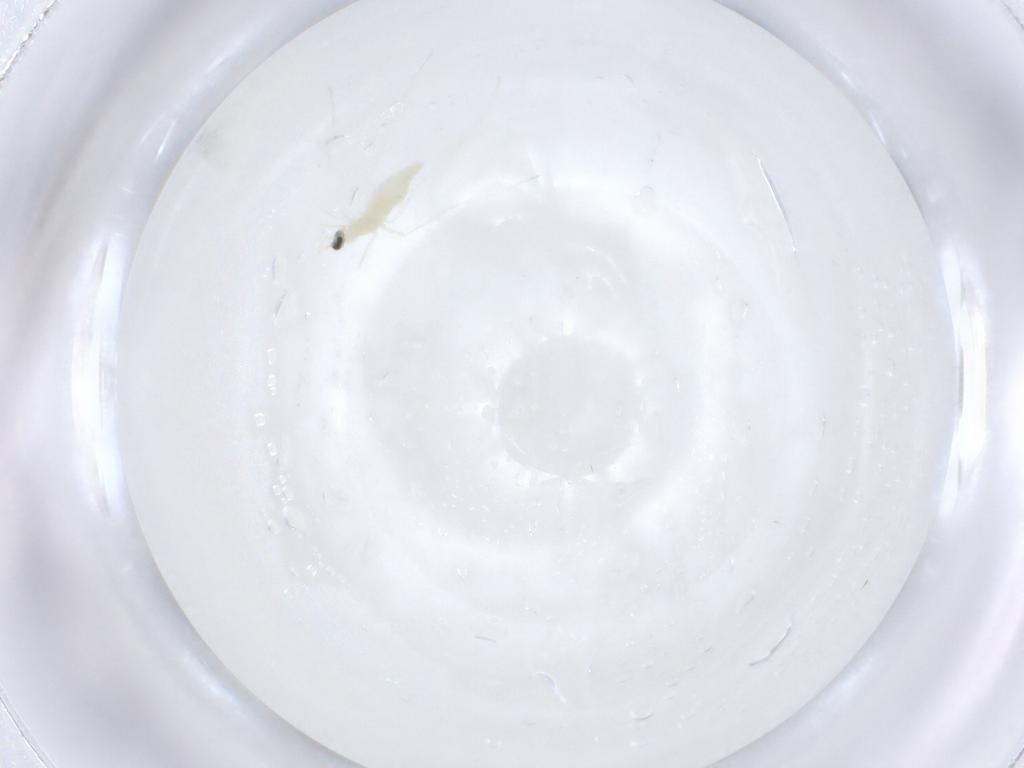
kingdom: Animalia
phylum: Arthropoda
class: Insecta
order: Diptera
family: Cecidomyiidae
